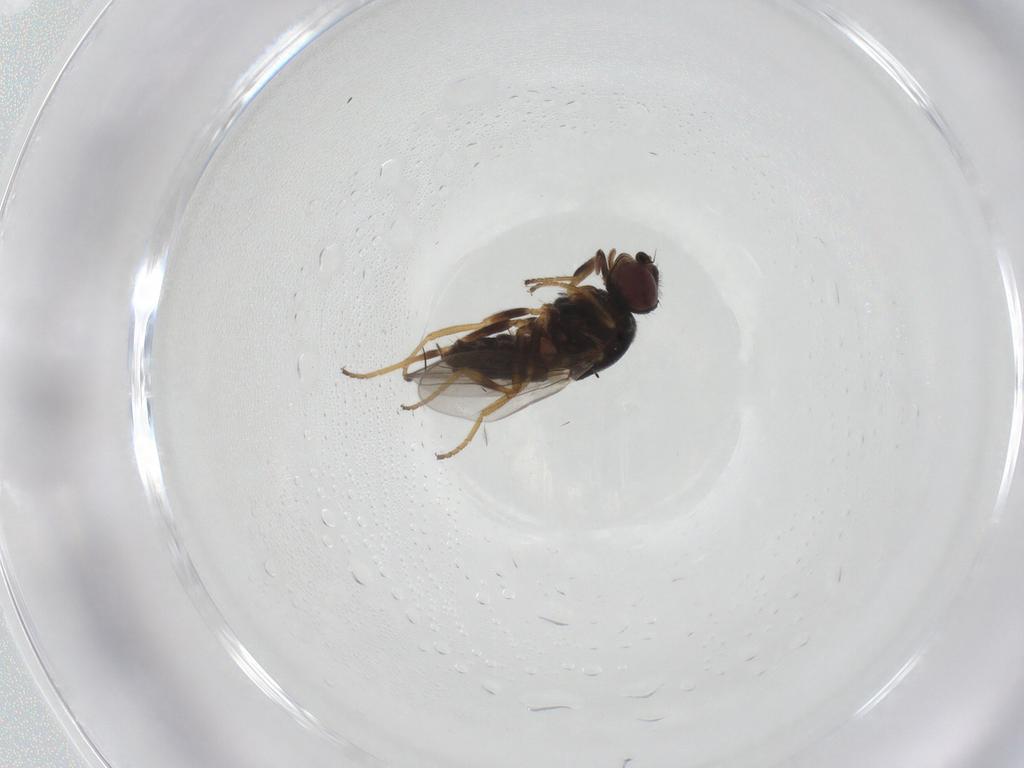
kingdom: Animalia
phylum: Arthropoda
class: Insecta
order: Diptera
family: Chloropidae
